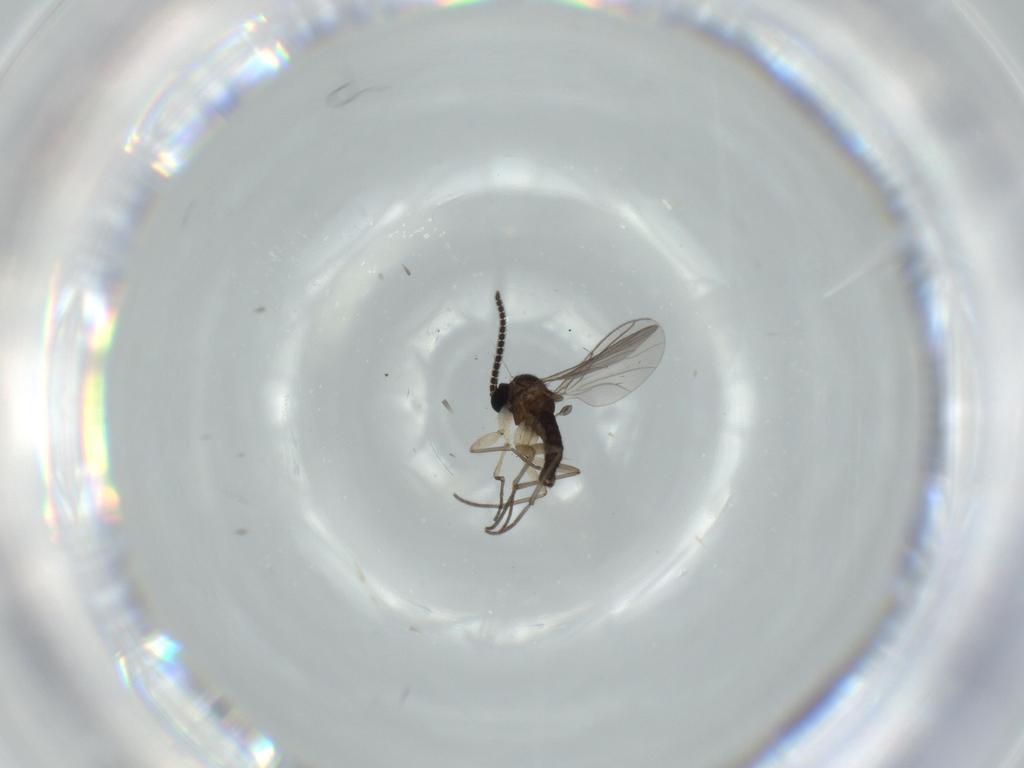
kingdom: Animalia
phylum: Arthropoda
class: Insecta
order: Diptera
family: Sciaridae
